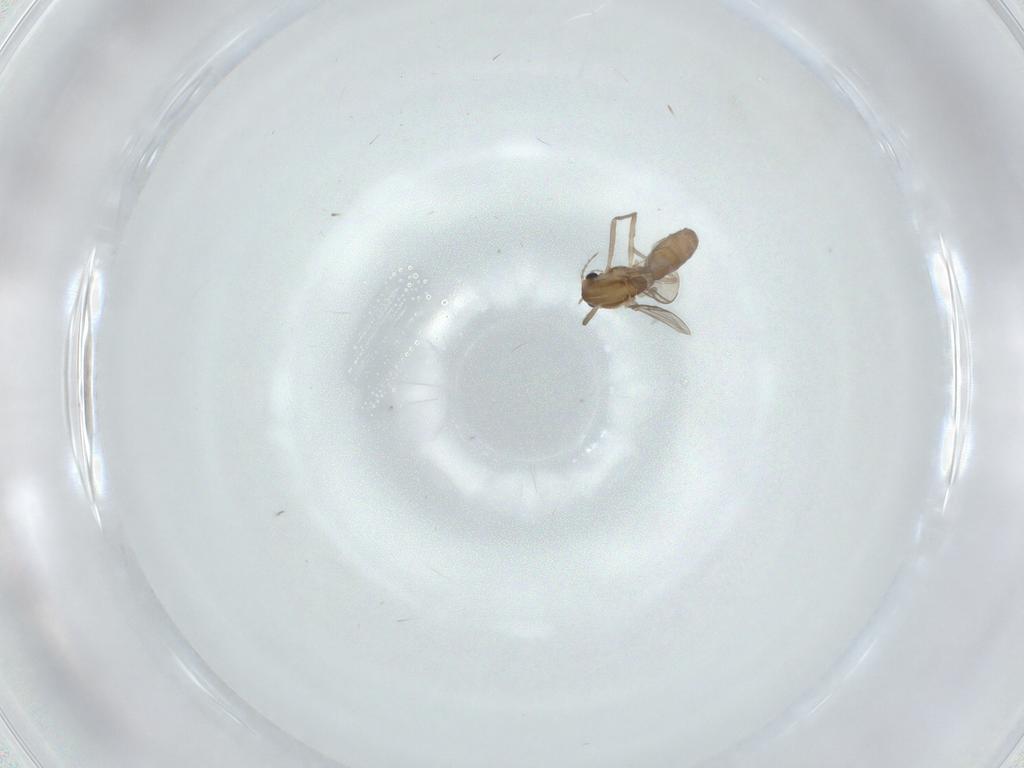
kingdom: Animalia
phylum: Arthropoda
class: Insecta
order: Diptera
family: Chironomidae
